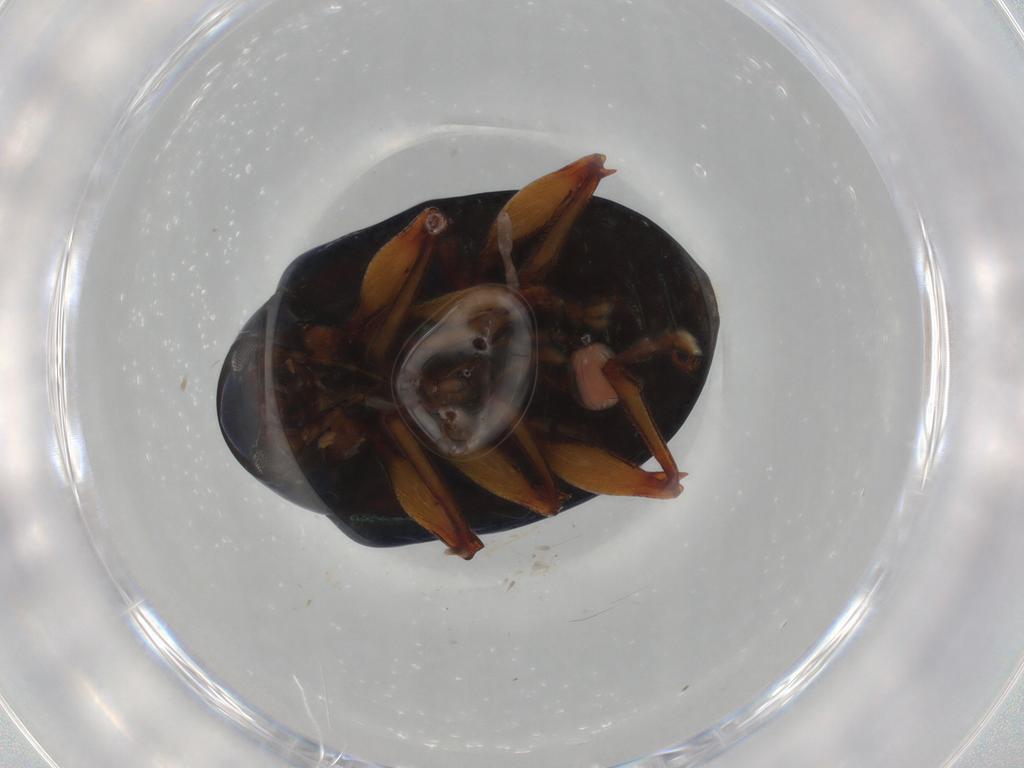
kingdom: Animalia
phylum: Arthropoda
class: Insecta
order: Coleoptera
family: Chrysomelidae
